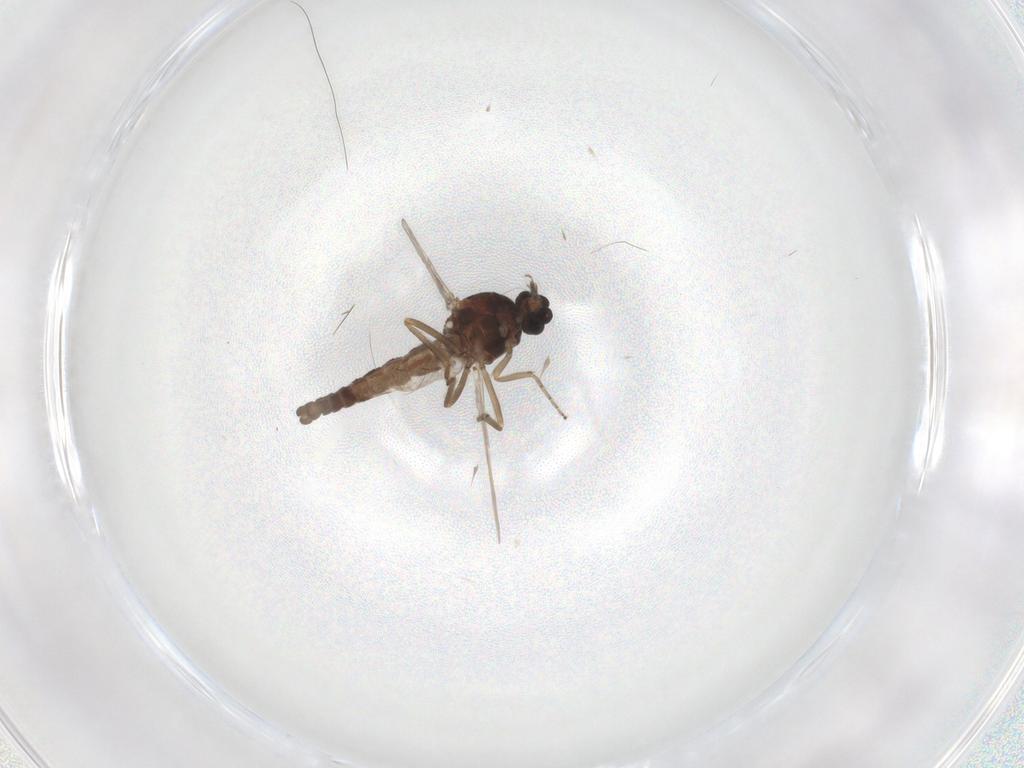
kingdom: Animalia
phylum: Arthropoda
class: Insecta
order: Diptera
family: Ceratopogonidae
